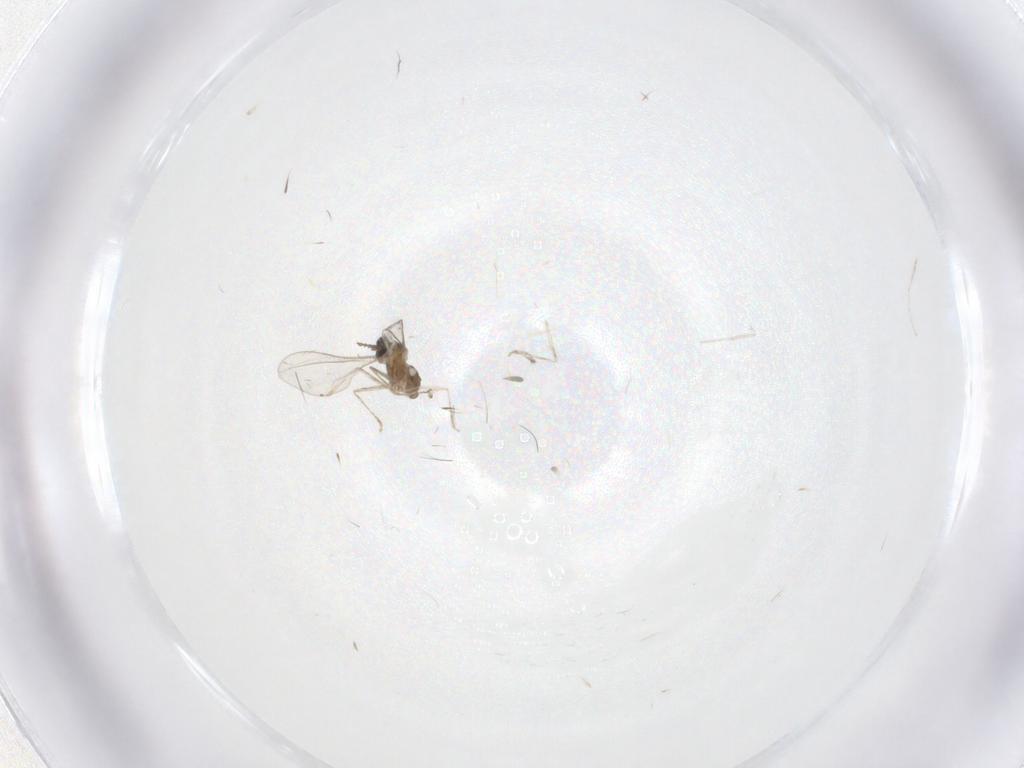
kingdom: Animalia
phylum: Arthropoda
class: Insecta
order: Diptera
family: Cecidomyiidae
